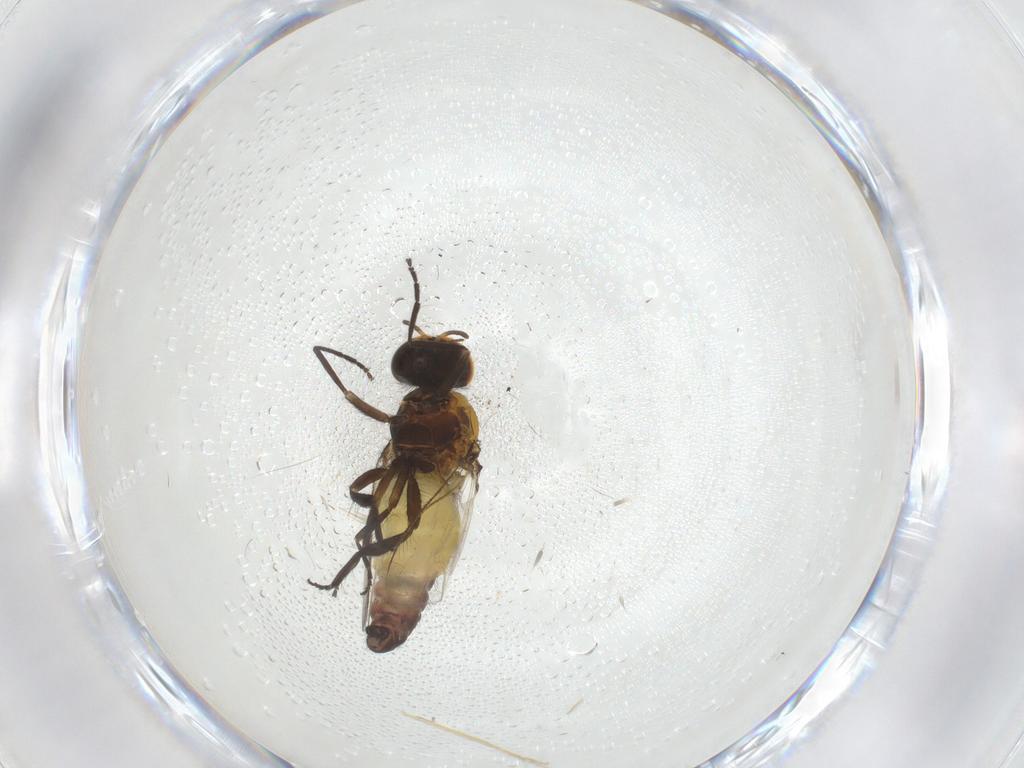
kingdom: Animalia
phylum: Arthropoda
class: Insecta
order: Diptera
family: Simuliidae
